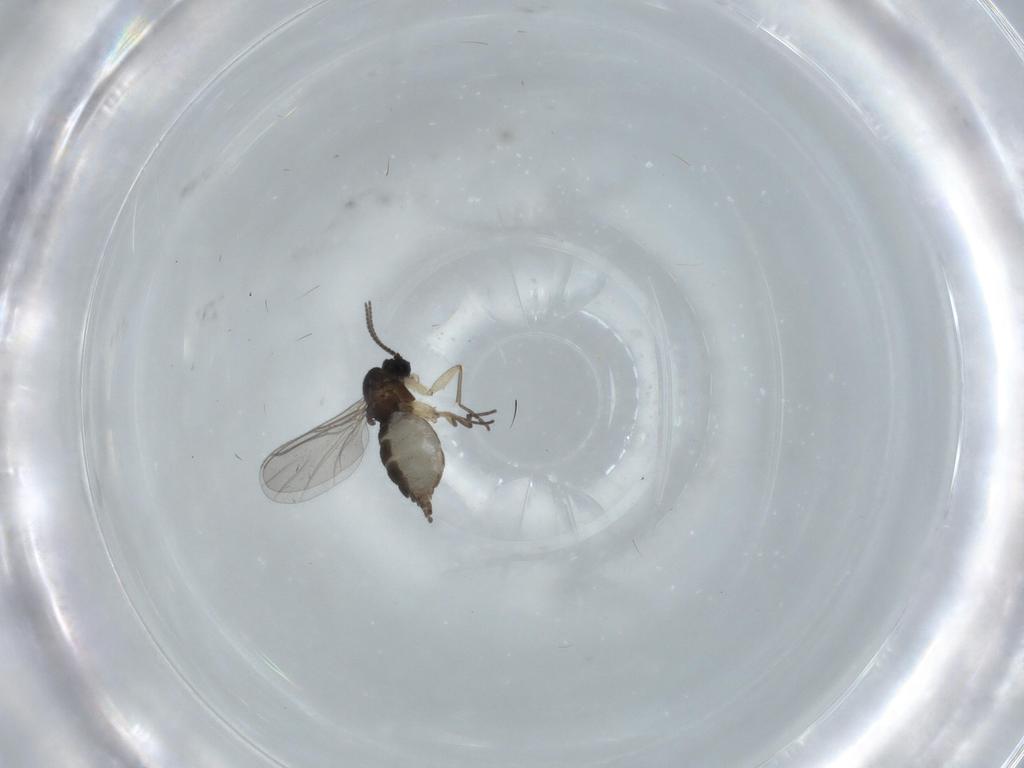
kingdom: Animalia
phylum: Arthropoda
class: Insecta
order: Diptera
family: Sciaridae
